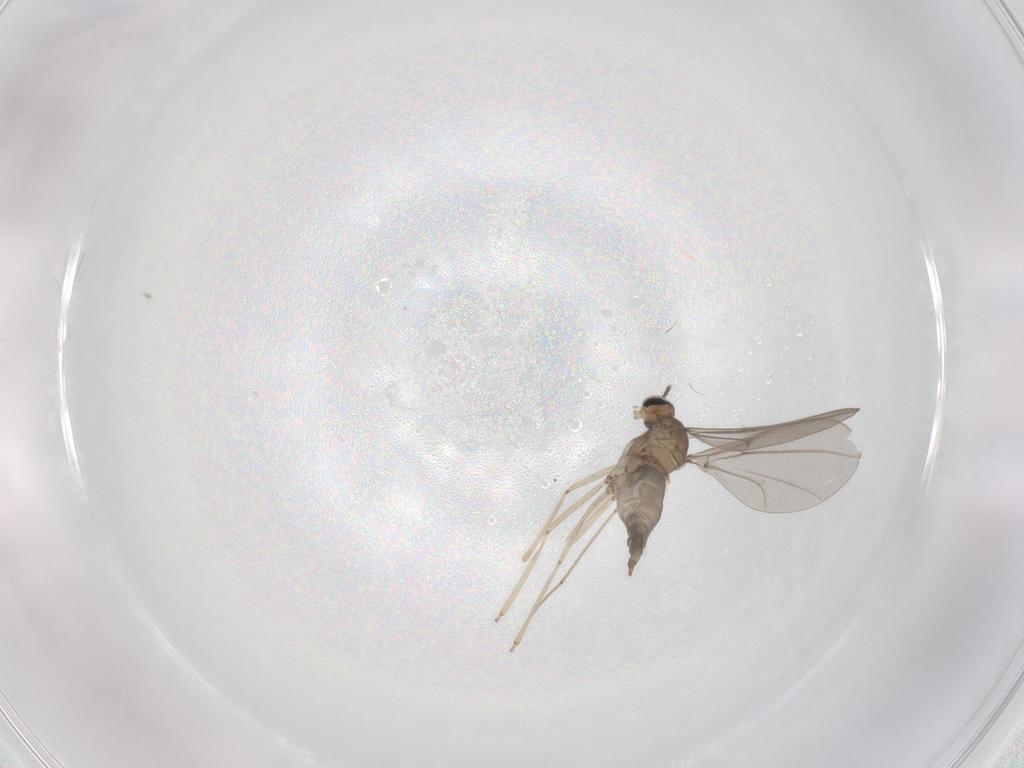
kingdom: Animalia
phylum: Arthropoda
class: Insecta
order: Diptera
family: Cecidomyiidae
